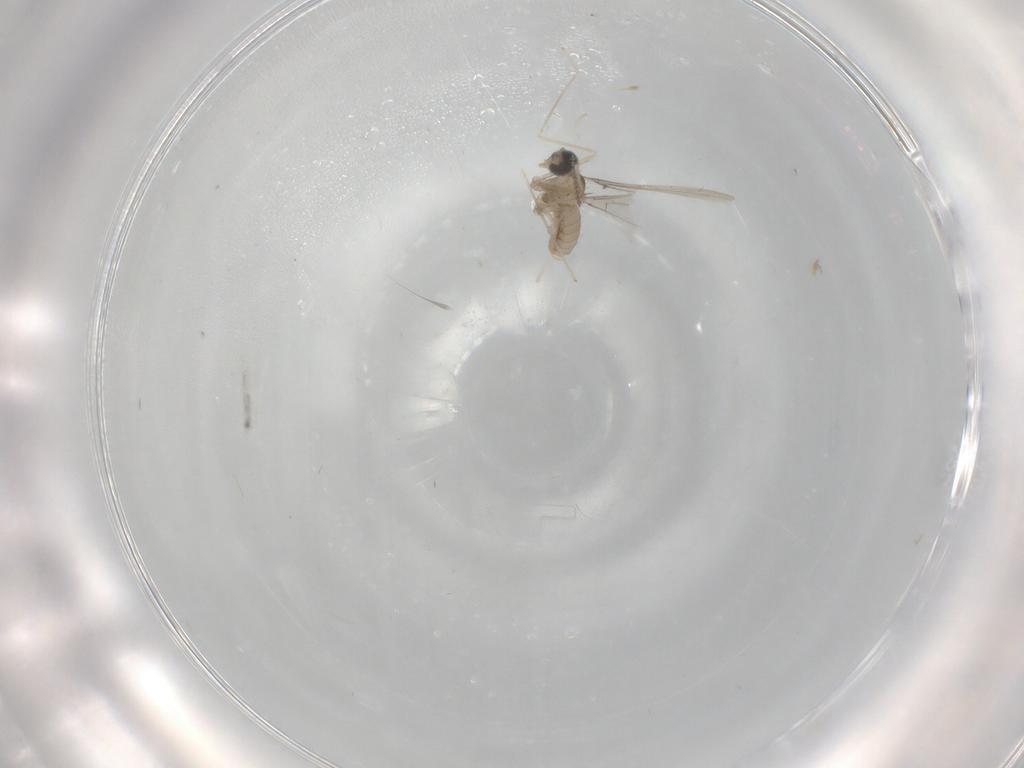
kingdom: Animalia
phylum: Arthropoda
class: Insecta
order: Diptera
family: Cecidomyiidae
